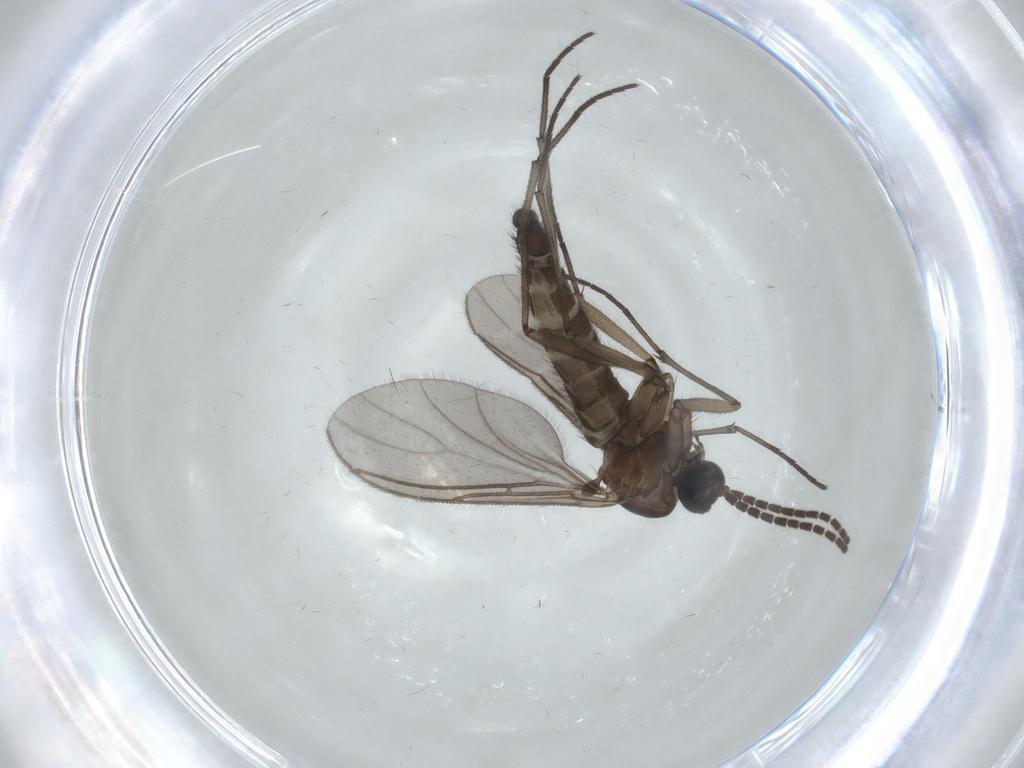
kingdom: Animalia
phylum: Arthropoda
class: Insecta
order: Diptera
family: Sciaridae
